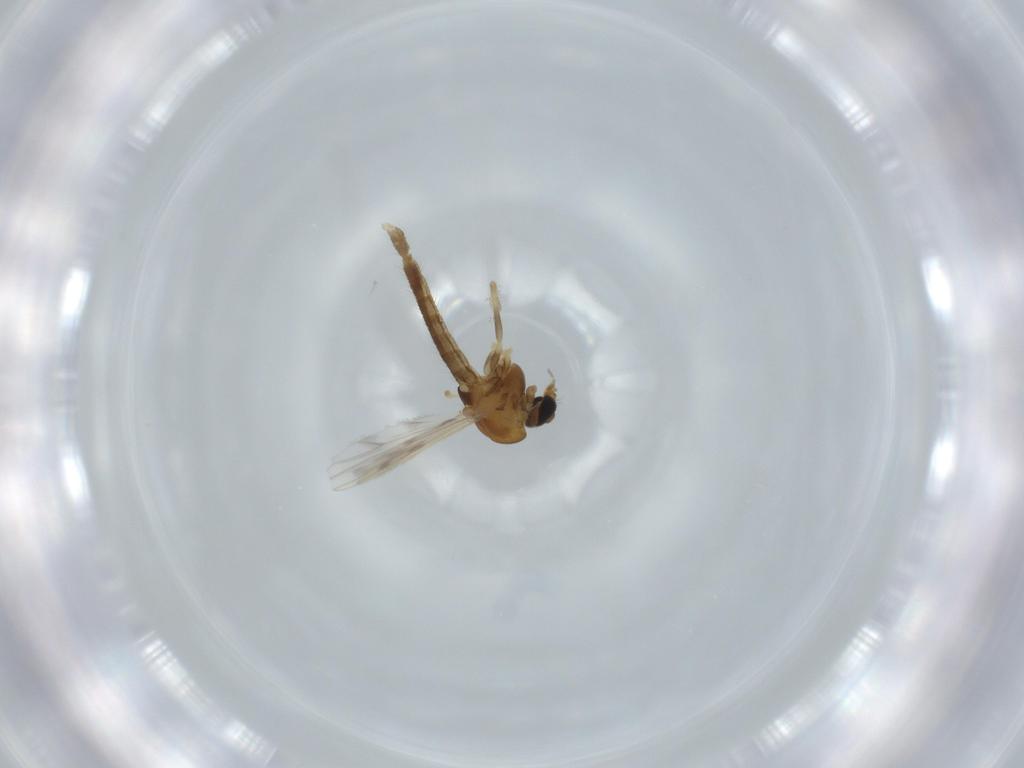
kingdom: Animalia
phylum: Arthropoda
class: Insecta
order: Diptera
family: Chironomidae
